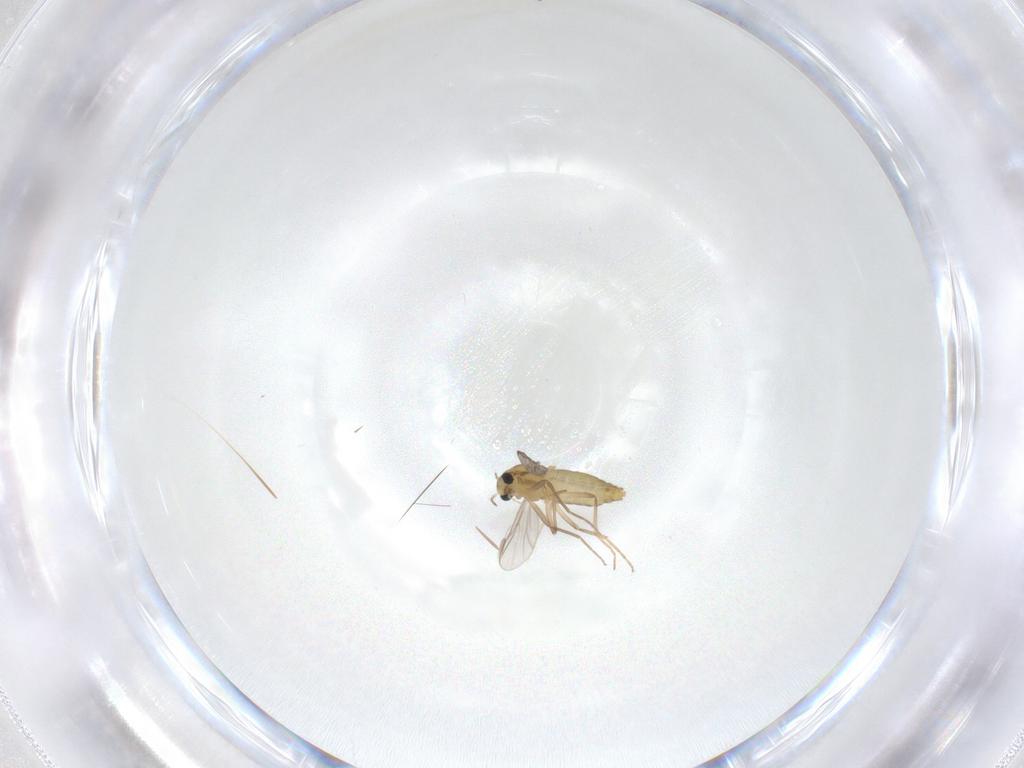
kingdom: Animalia
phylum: Arthropoda
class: Insecta
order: Diptera
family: Chironomidae
